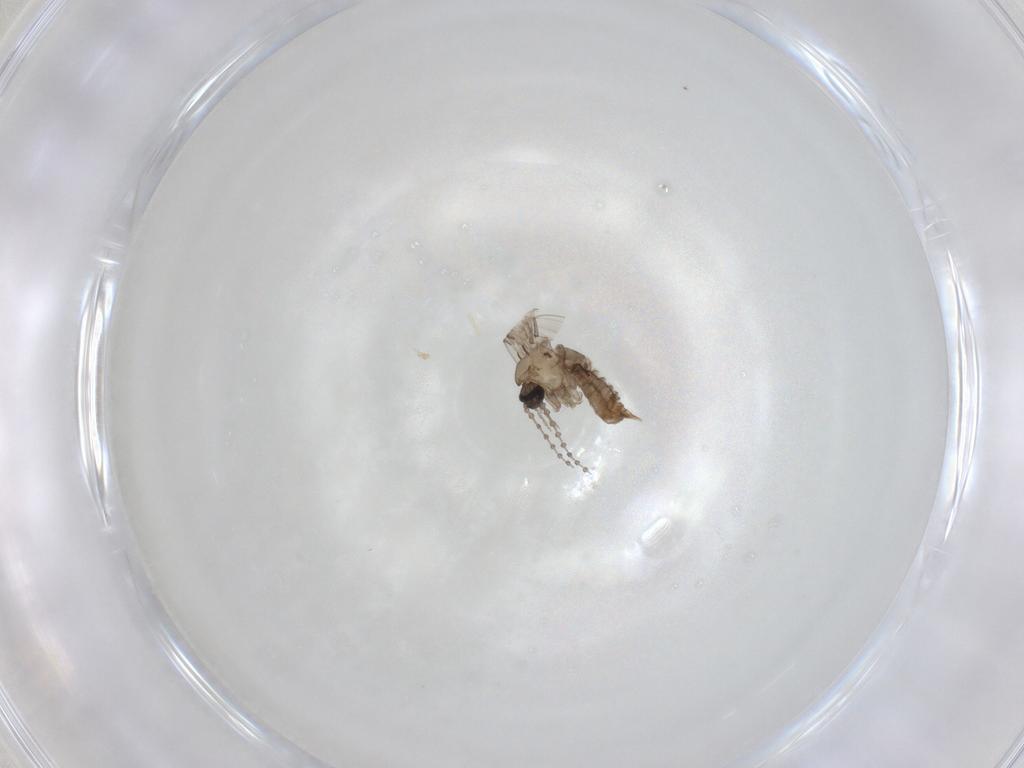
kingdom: Animalia
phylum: Arthropoda
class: Insecta
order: Diptera
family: Psychodidae
